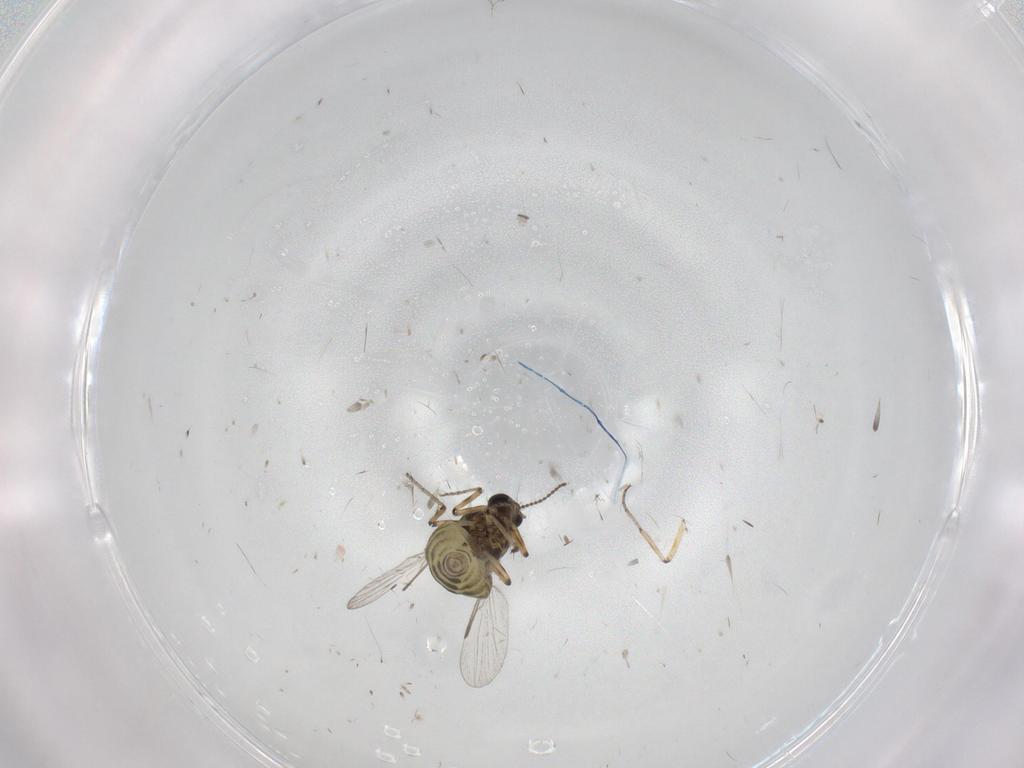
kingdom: Animalia
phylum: Arthropoda
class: Insecta
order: Diptera
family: Phoridae
